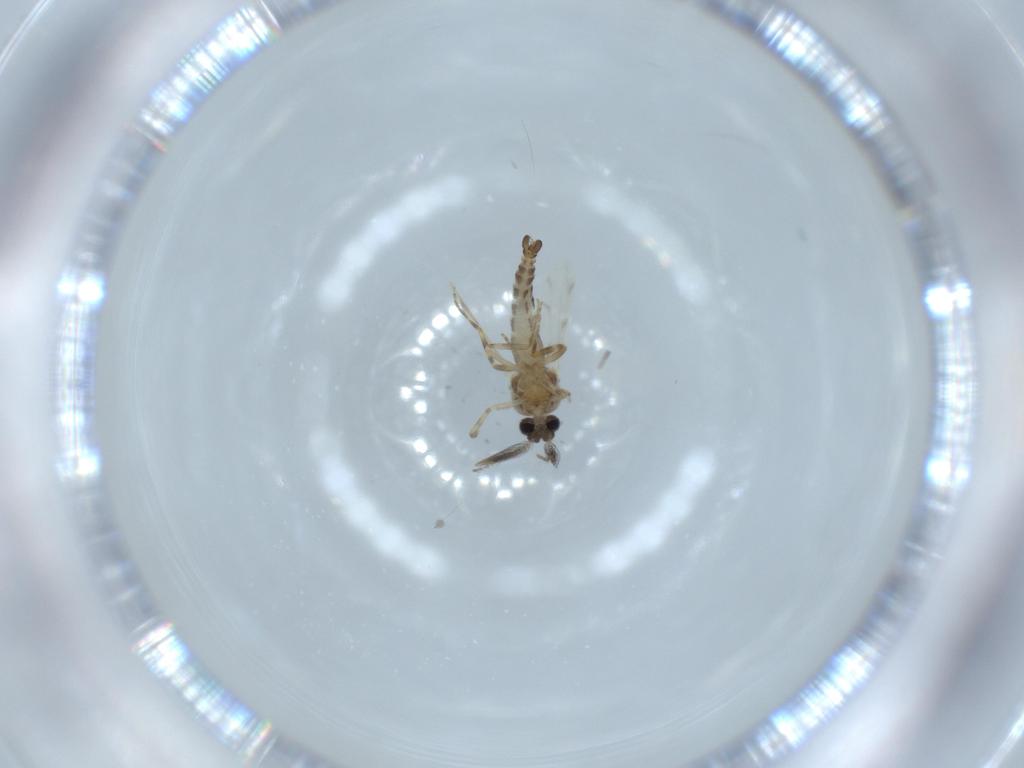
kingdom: Animalia
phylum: Arthropoda
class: Insecta
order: Diptera
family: Ceratopogonidae
